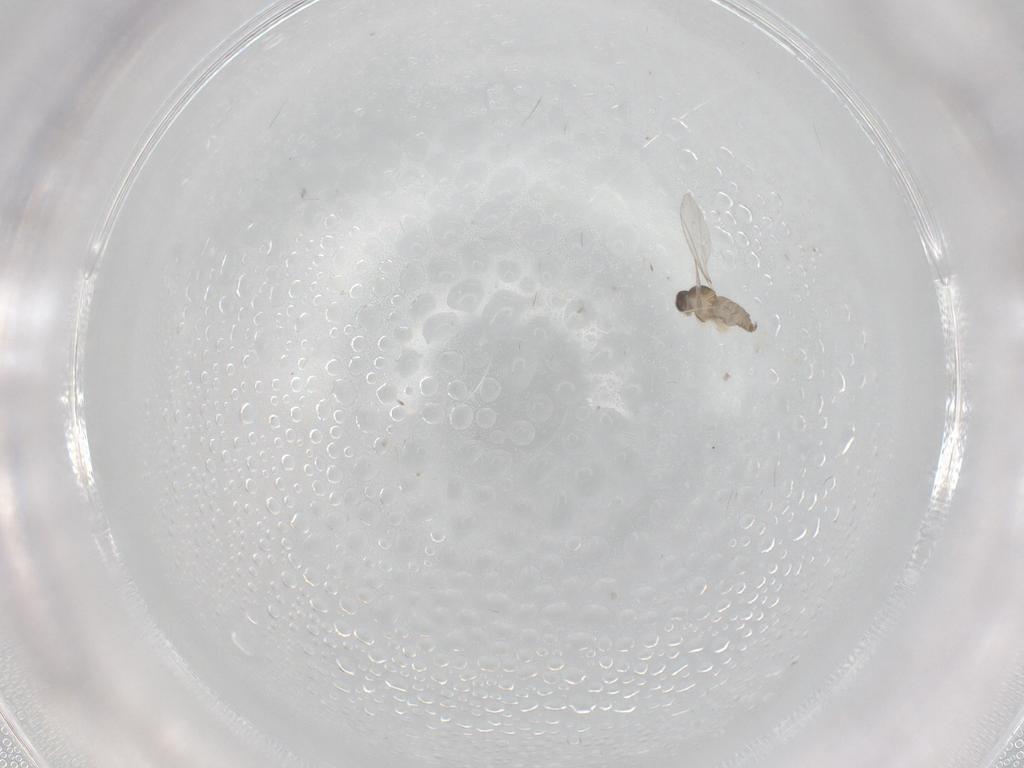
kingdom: Animalia
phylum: Arthropoda
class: Insecta
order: Diptera
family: Cecidomyiidae
